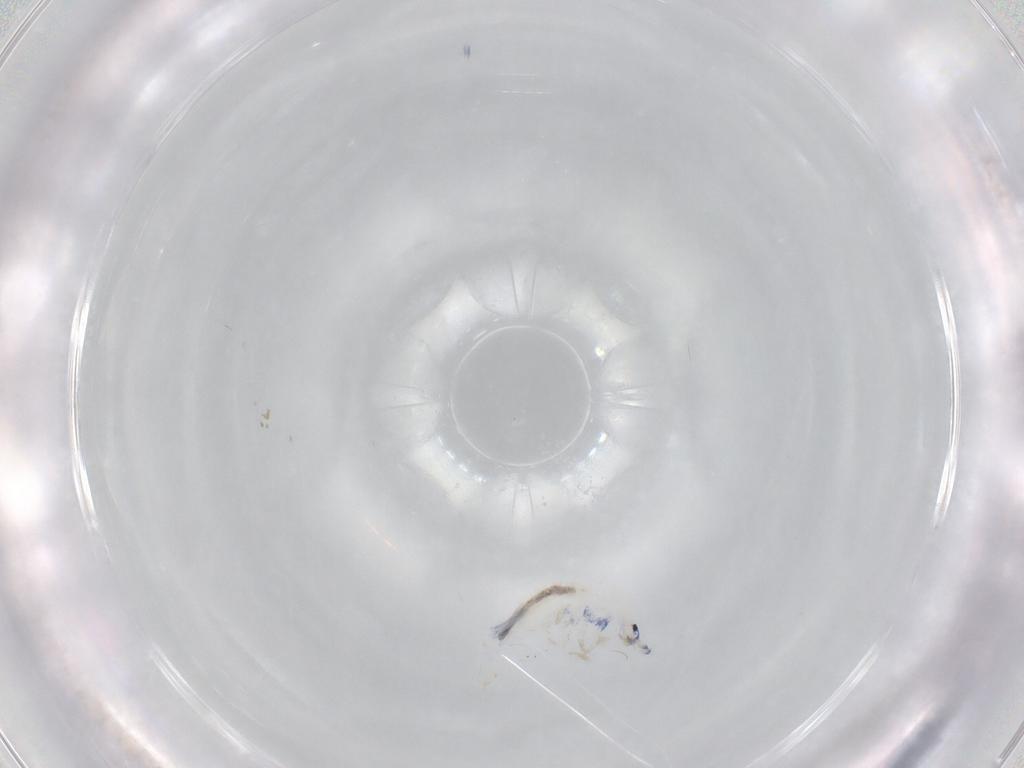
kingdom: Animalia
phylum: Arthropoda
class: Collembola
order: Entomobryomorpha
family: Entomobryidae
